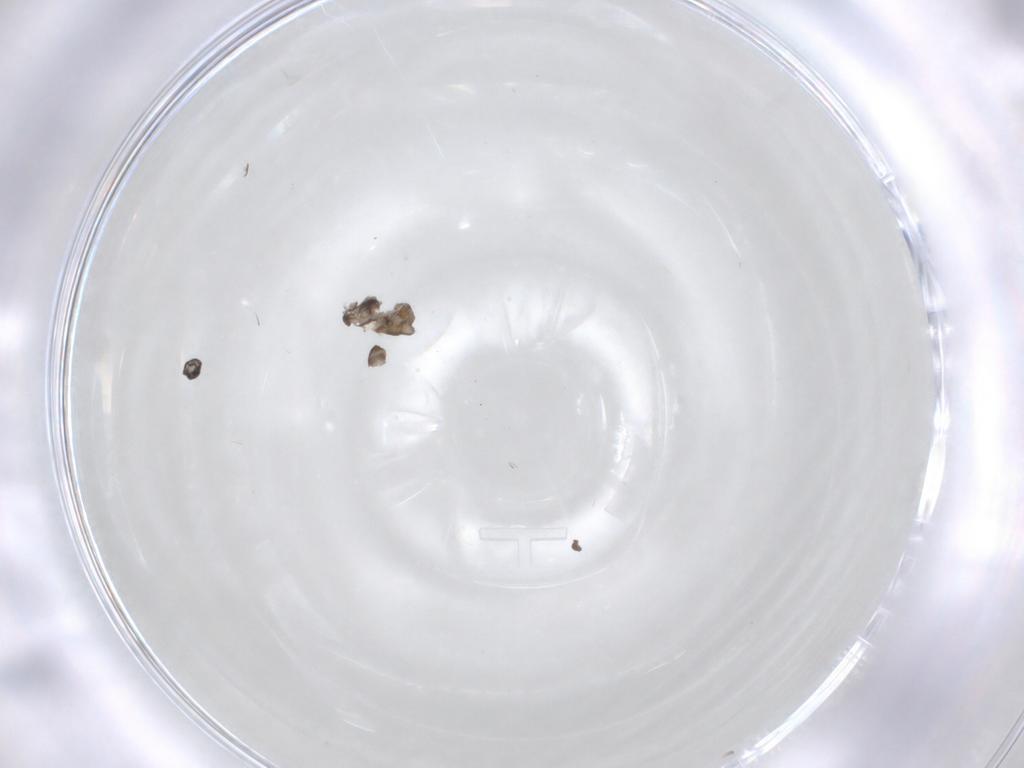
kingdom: Animalia
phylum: Arthropoda
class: Insecta
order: Diptera
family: Cecidomyiidae
